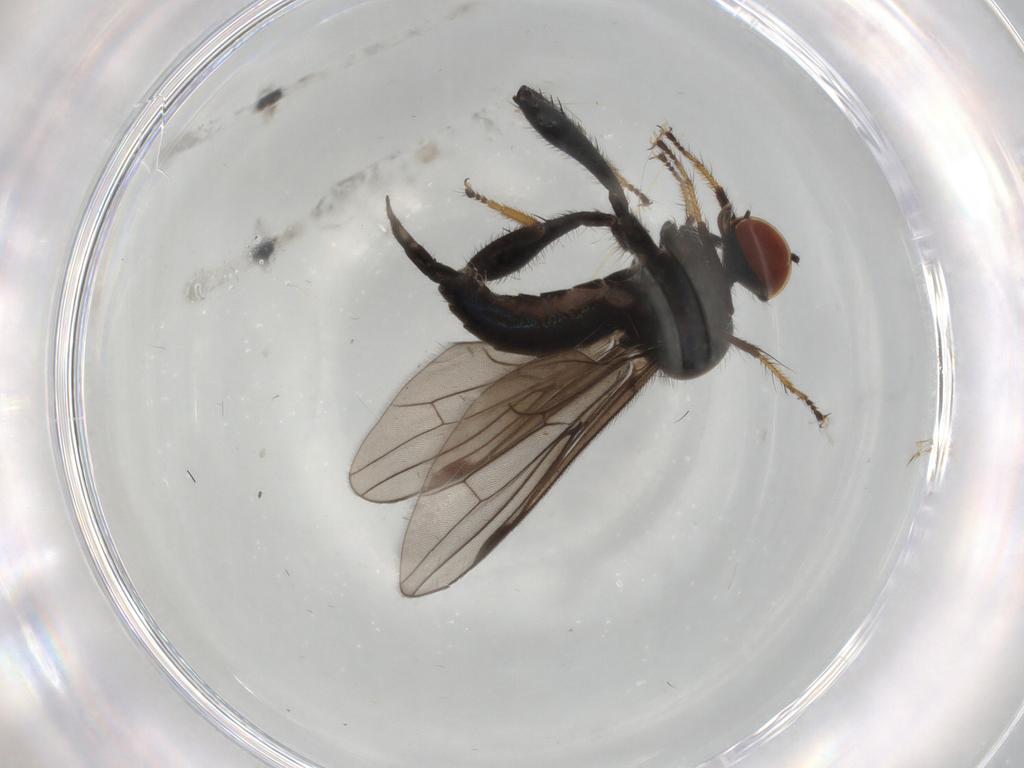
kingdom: Animalia
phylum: Arthropoda
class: Insecta
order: Diptera
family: Hybotidae
